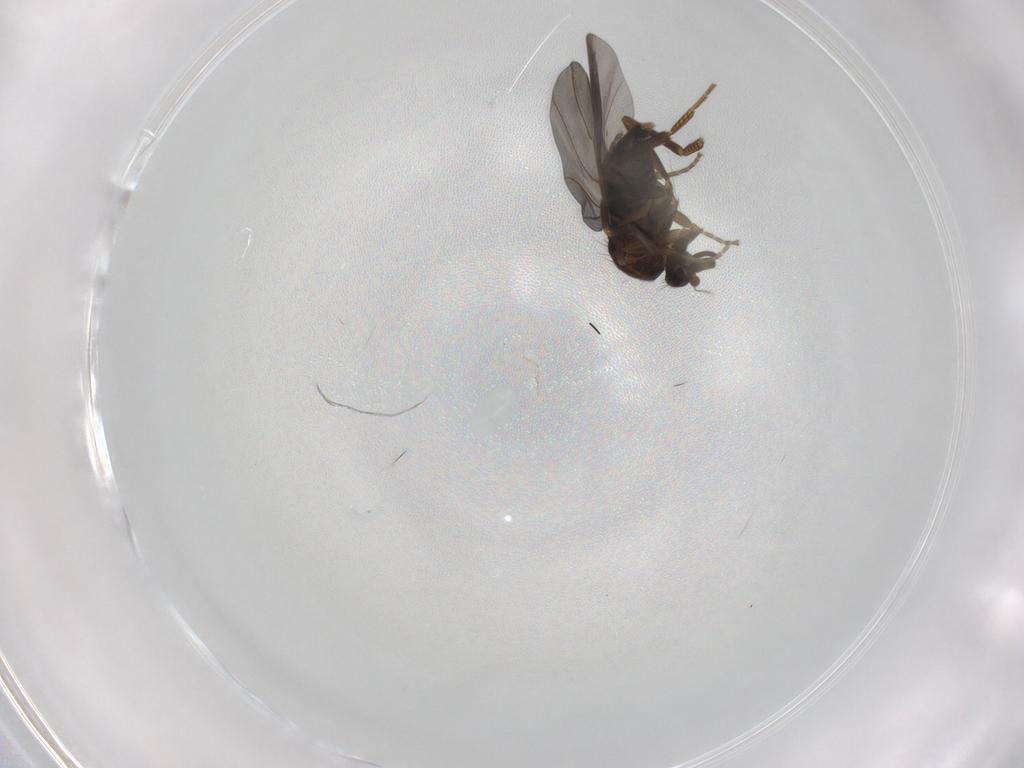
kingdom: Animalia
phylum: Arthropoda
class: Insecta
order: Diptera
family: Phoridae
